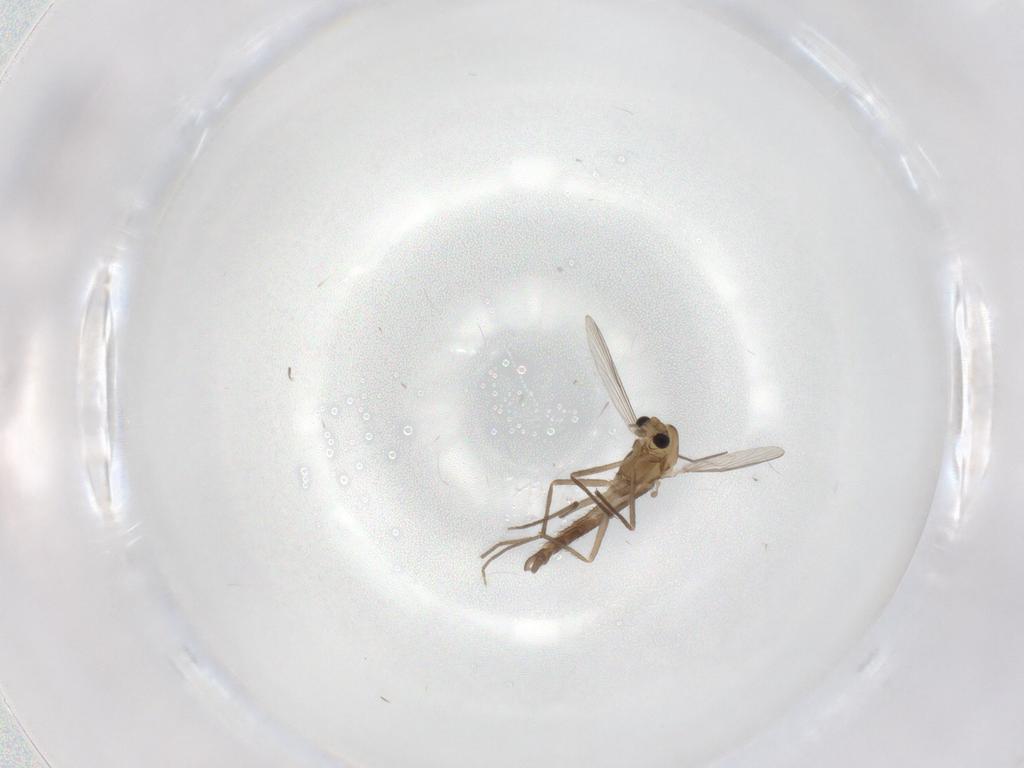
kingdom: Animalia
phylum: Arthropoda
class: Insecta
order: Diptera
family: Chironomidae
